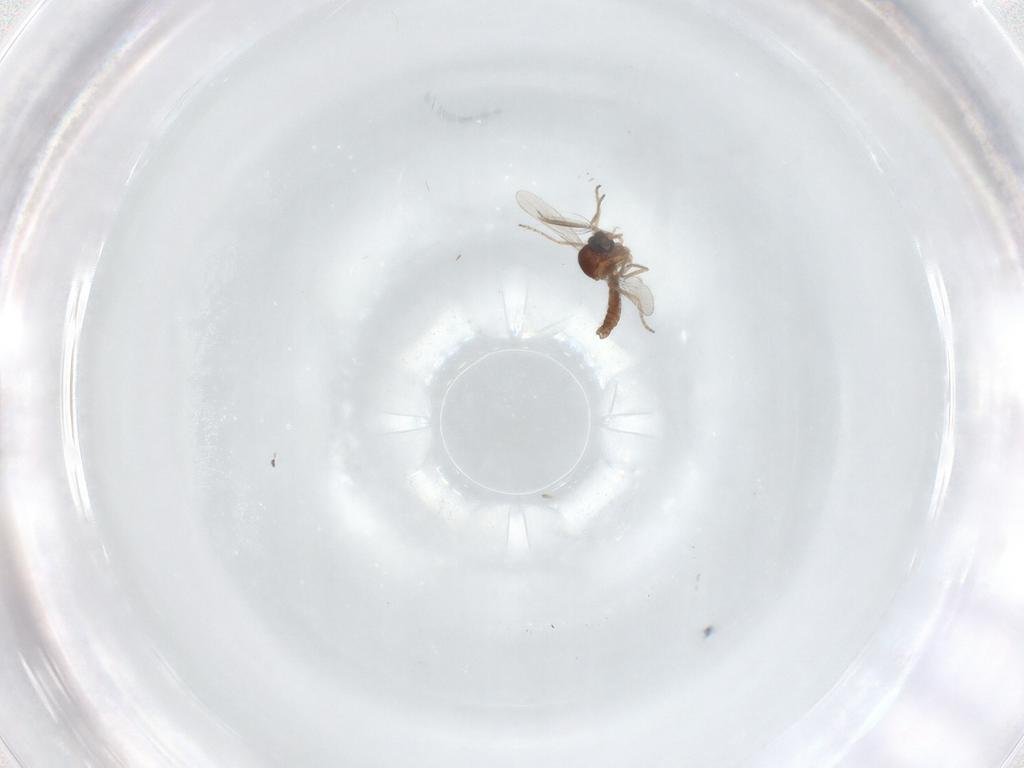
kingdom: Animalia
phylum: Arthropoda
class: Insecta
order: Diptera
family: Ceratopogonidae
